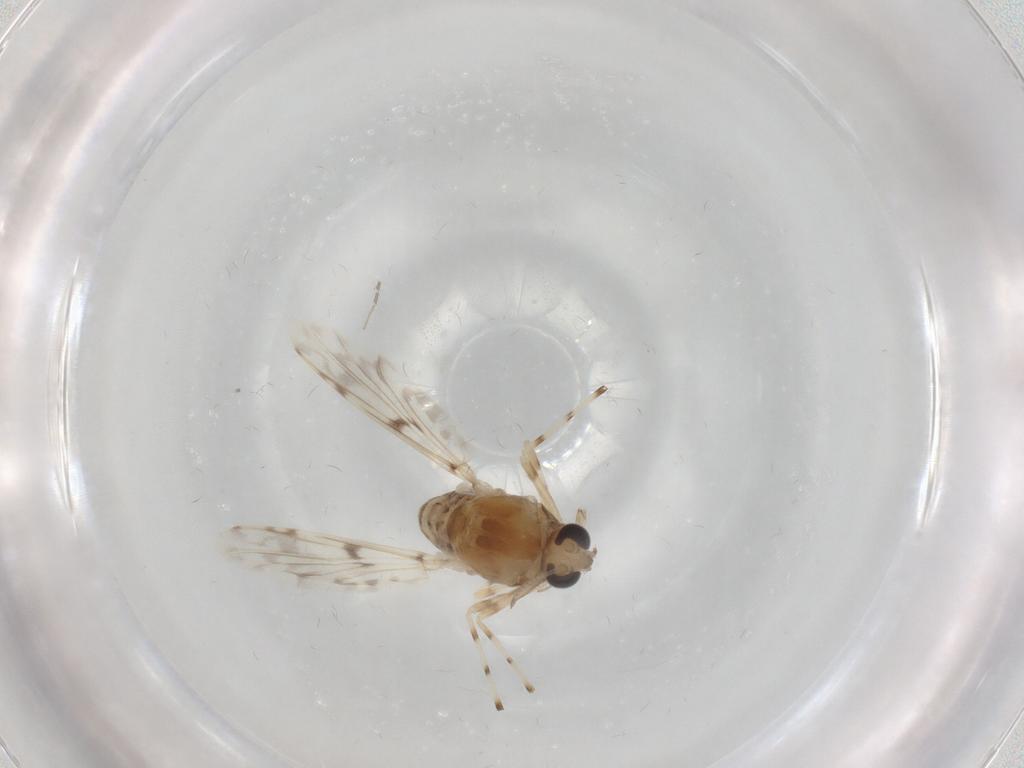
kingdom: Animalia
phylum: Arthropoda
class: Insecta
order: Diptera
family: Chironomidae
